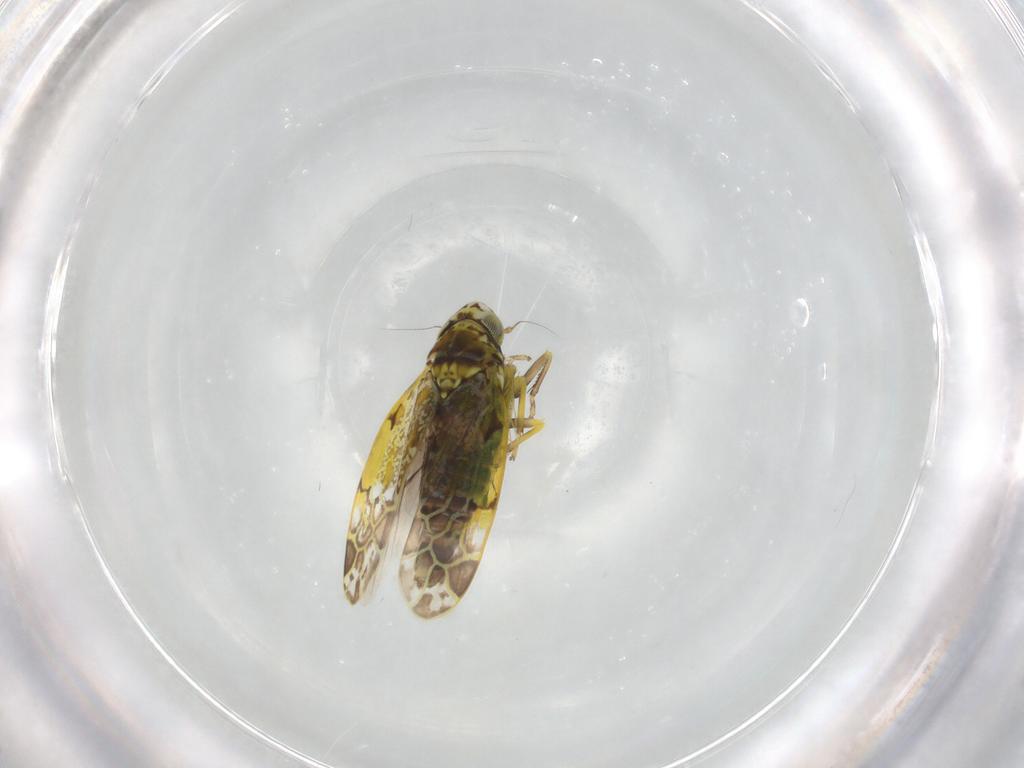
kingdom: Animalia
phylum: Arthropoda
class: Insecta
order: Hemiptera
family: Cicadellidae
